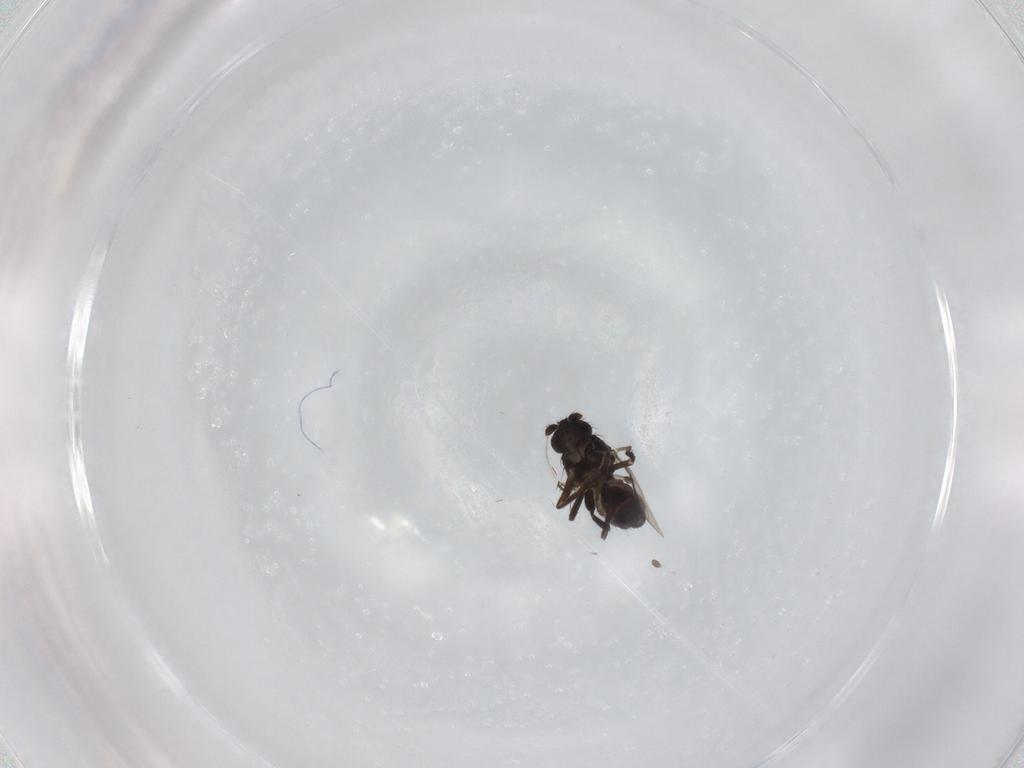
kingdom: Animalia
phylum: Arthropoda
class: Insecta
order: Diptera
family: Sphaeroceridae
